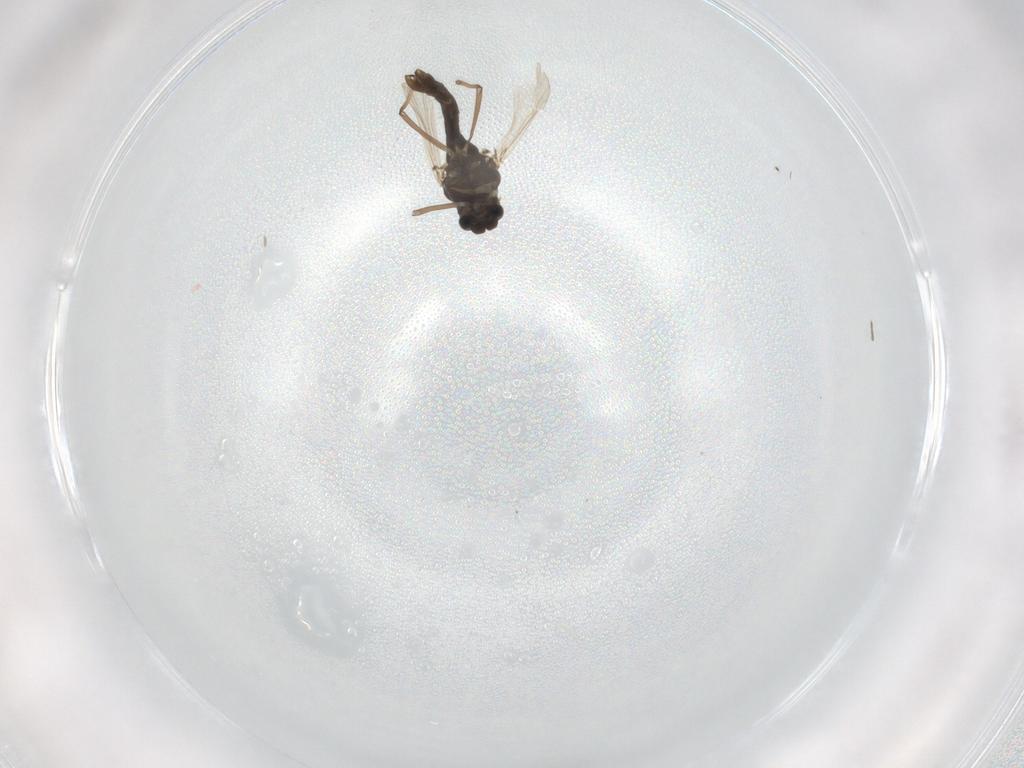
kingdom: Animalia
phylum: Arthropoda
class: Insecta
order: Diptera
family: Chironomidae
